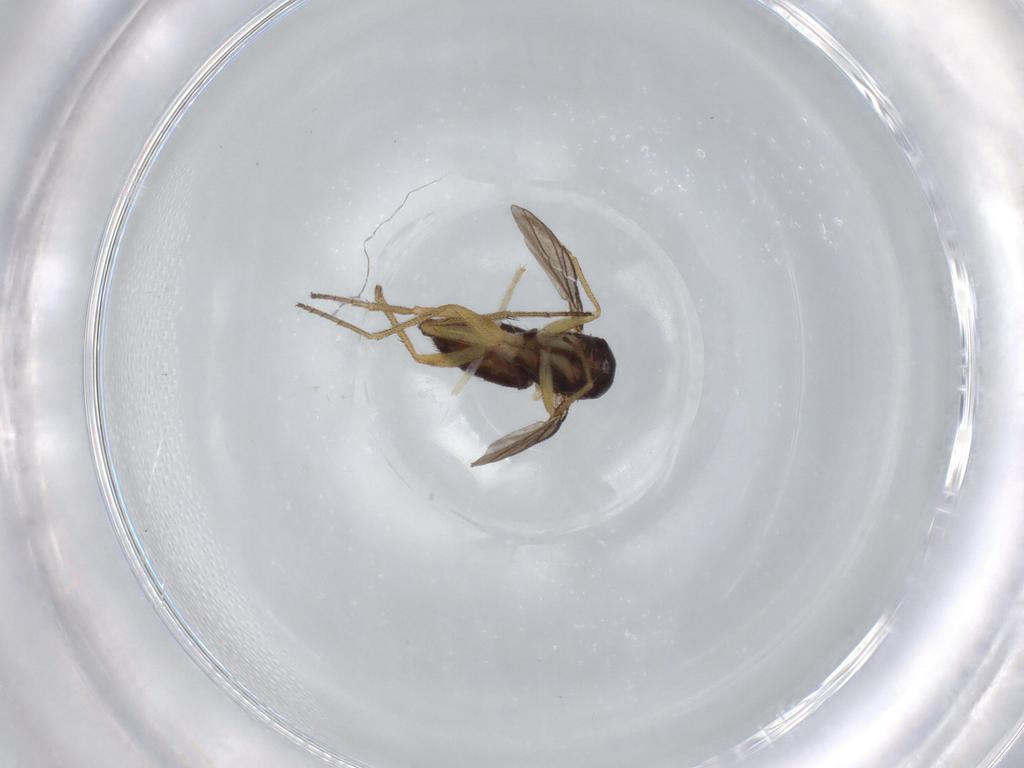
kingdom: Animalia
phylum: Arthropoda
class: Insecta
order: Diptera
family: Dolichopodidae
